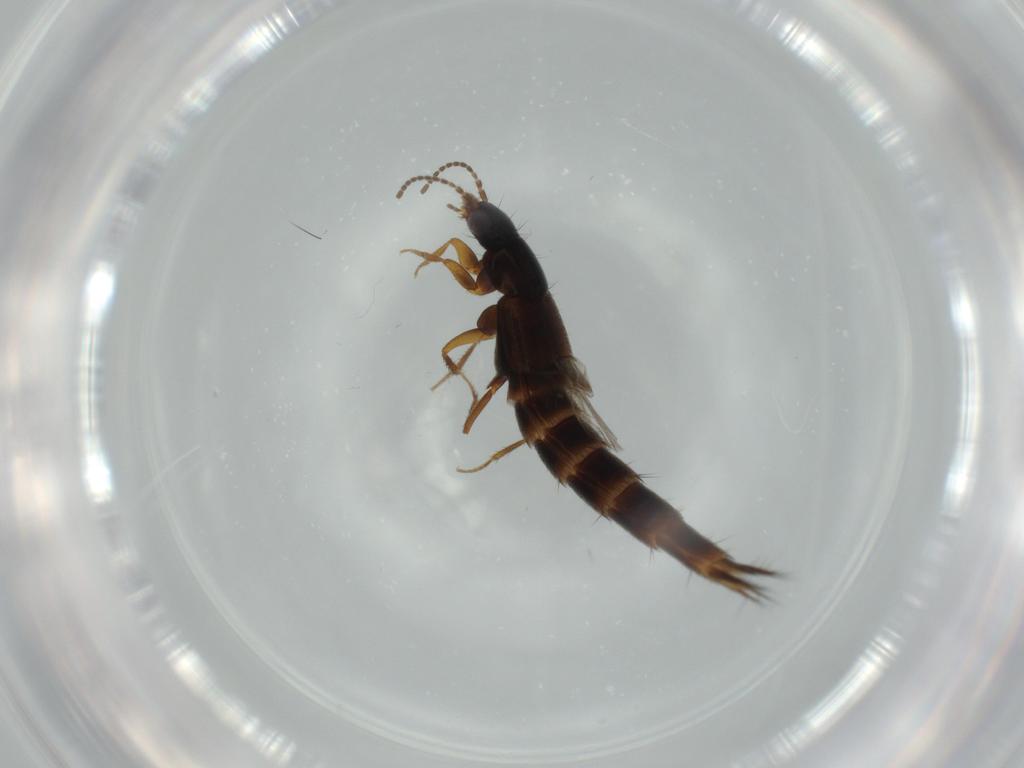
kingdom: Animalia
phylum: Arthropoda
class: Insecta
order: Coleoptera
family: Staphylinidae
